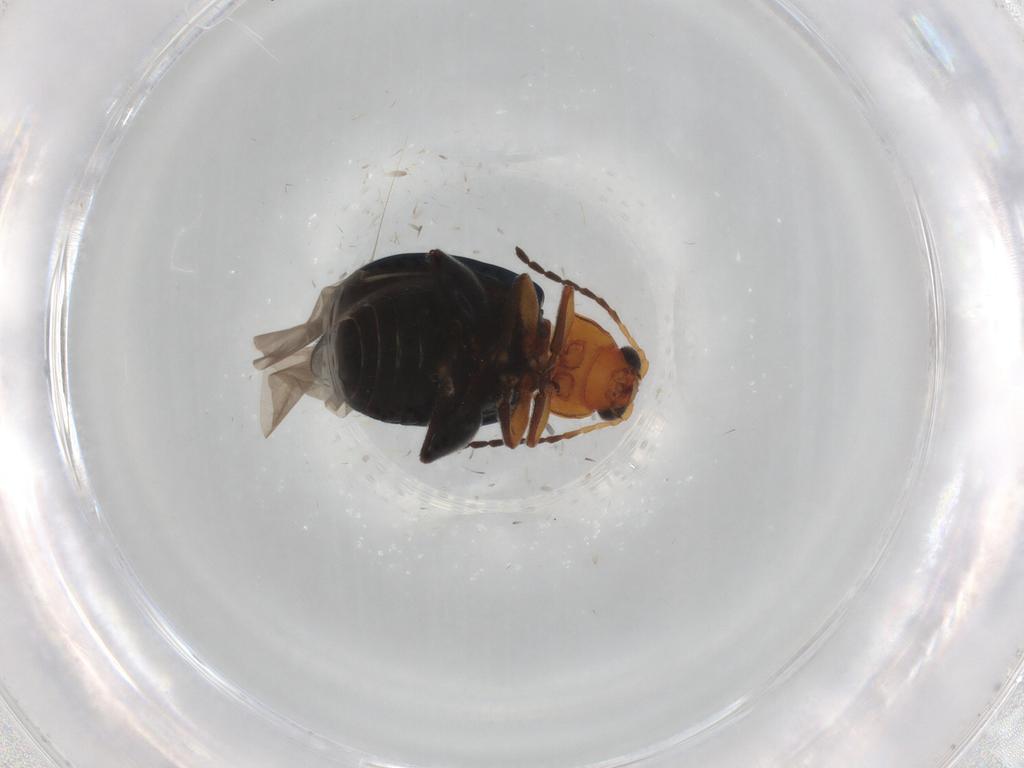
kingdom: Animalia
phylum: Arthropoda
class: Insecta
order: Coleoptera
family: Chrysomelidae
